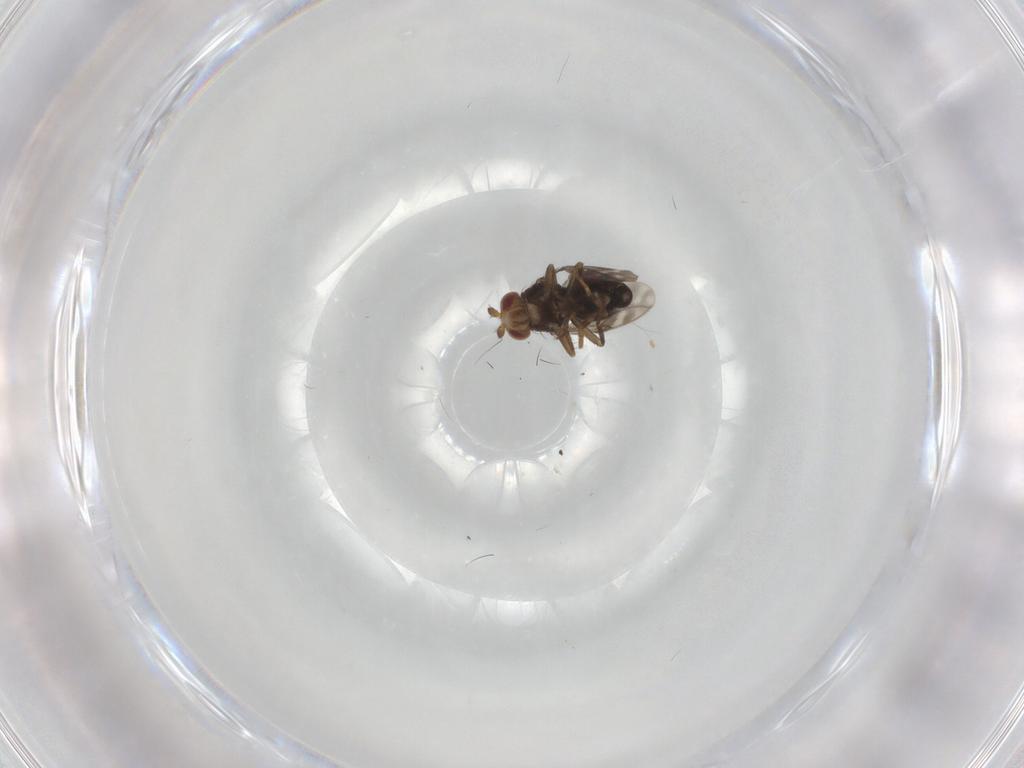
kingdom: Animalia
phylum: Arthropoda
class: Insecta
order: Diptera
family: Sphaeroceridae
